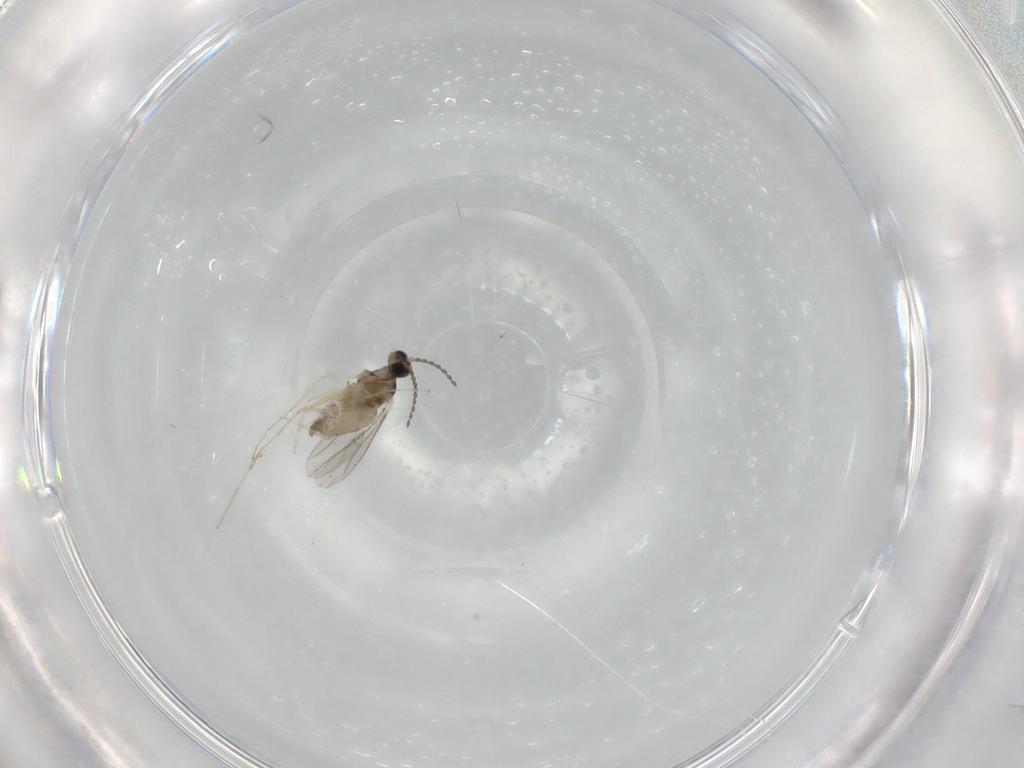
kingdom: Animalia
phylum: Arthropoda
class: Insecta
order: Diptera
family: Cecidomyiidae
